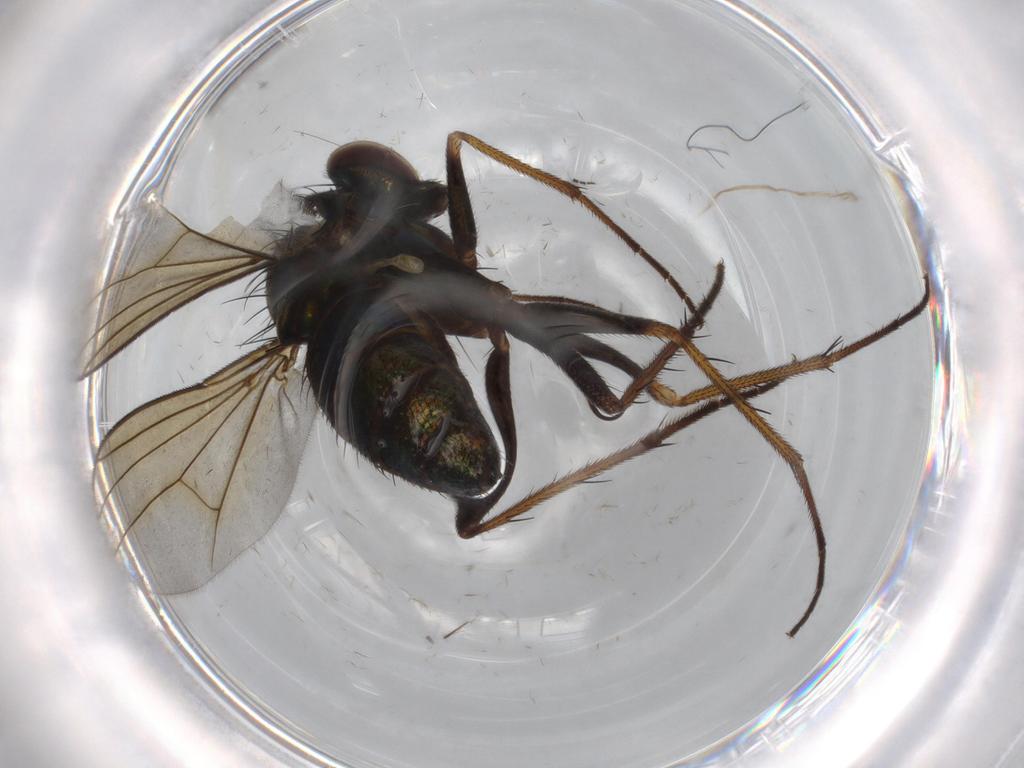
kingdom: Animalia
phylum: Arthropoda
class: Insecta
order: Diptera
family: Dolichopodidae
